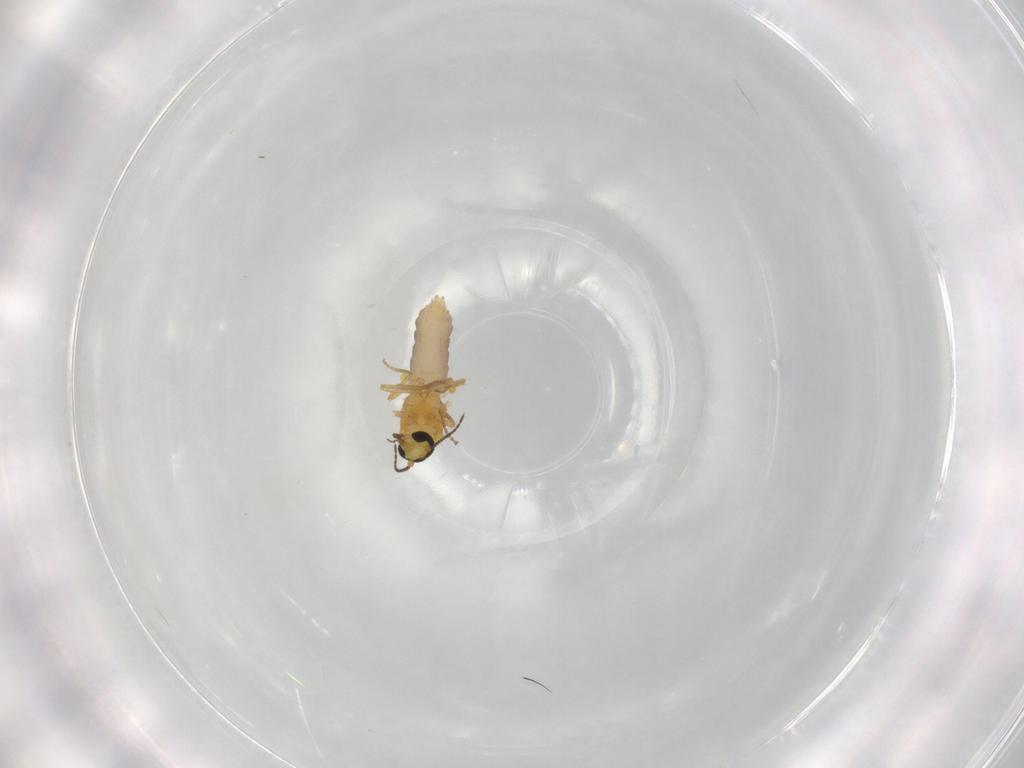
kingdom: Animalia
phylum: Arthropoda
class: Insecta
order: Diptera
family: Ceratopogonidae
